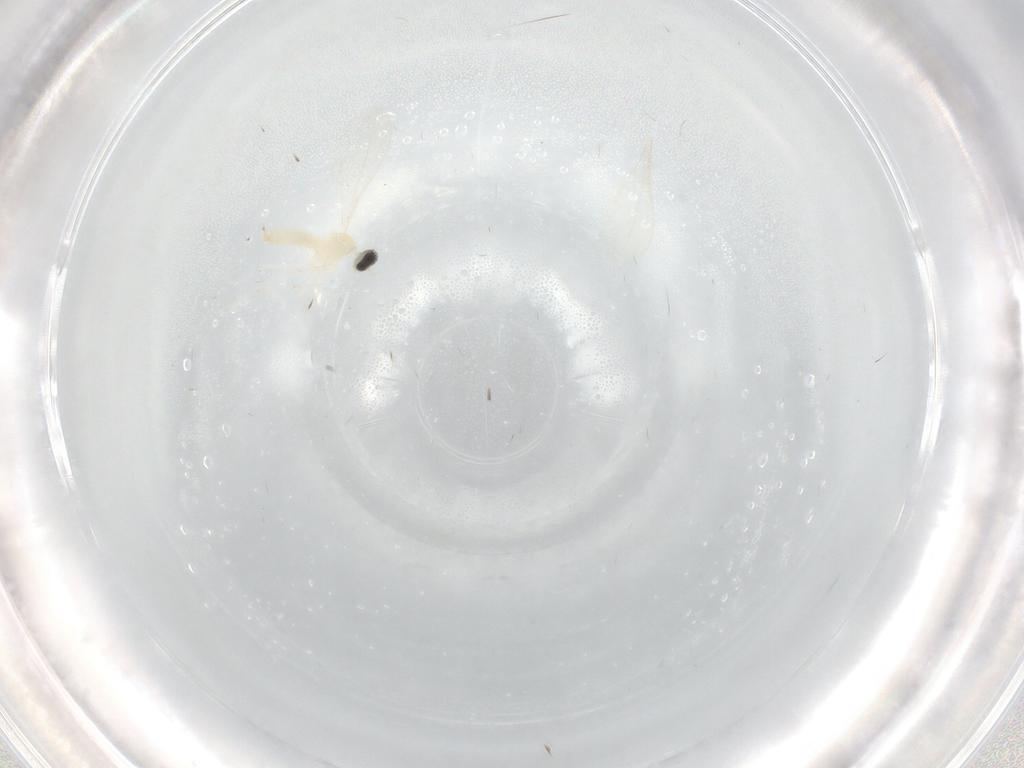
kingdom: Animalia
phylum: Arthropoda
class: Insecta
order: Diptera
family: Cecidomyiidae
